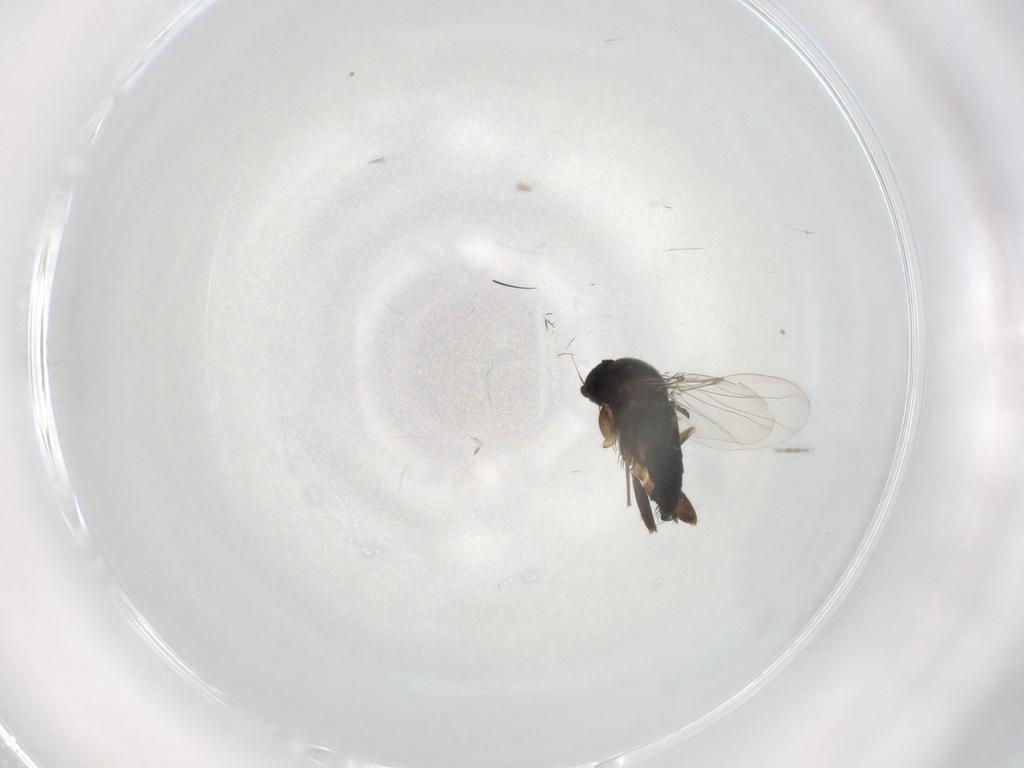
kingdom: Animalia
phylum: Arthropoda
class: Insecta
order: Diptera
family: Phoridae
